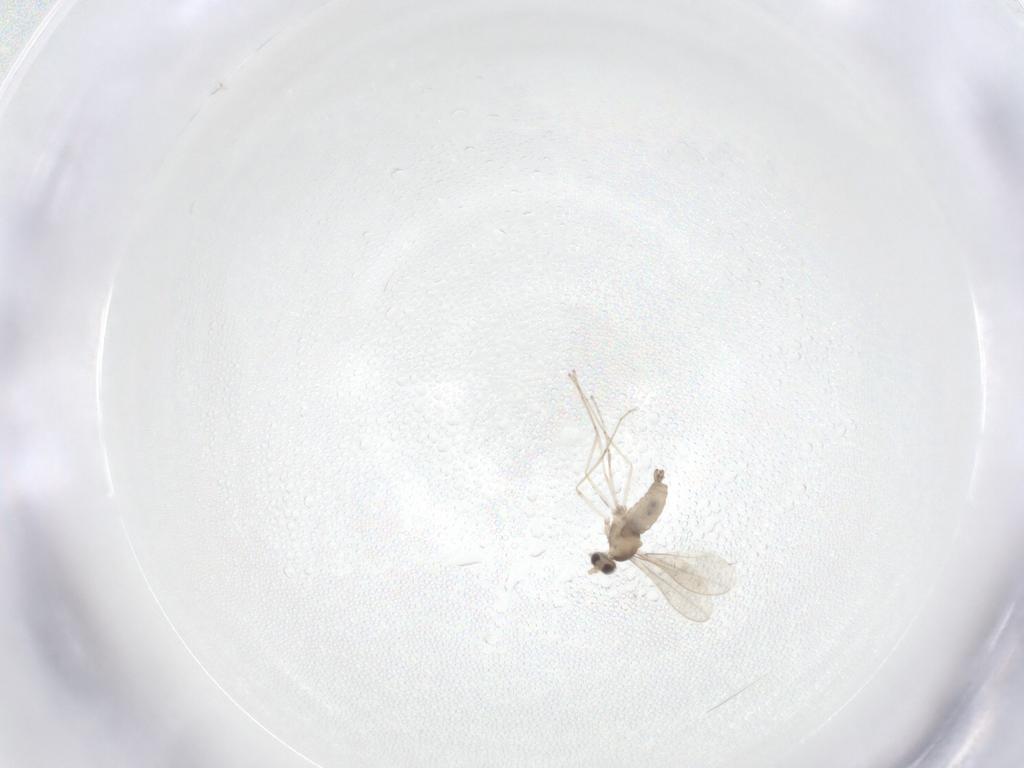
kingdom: Animalia
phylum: Arthropoda
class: Insecta
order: Diptera
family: Cecidomyiidae
